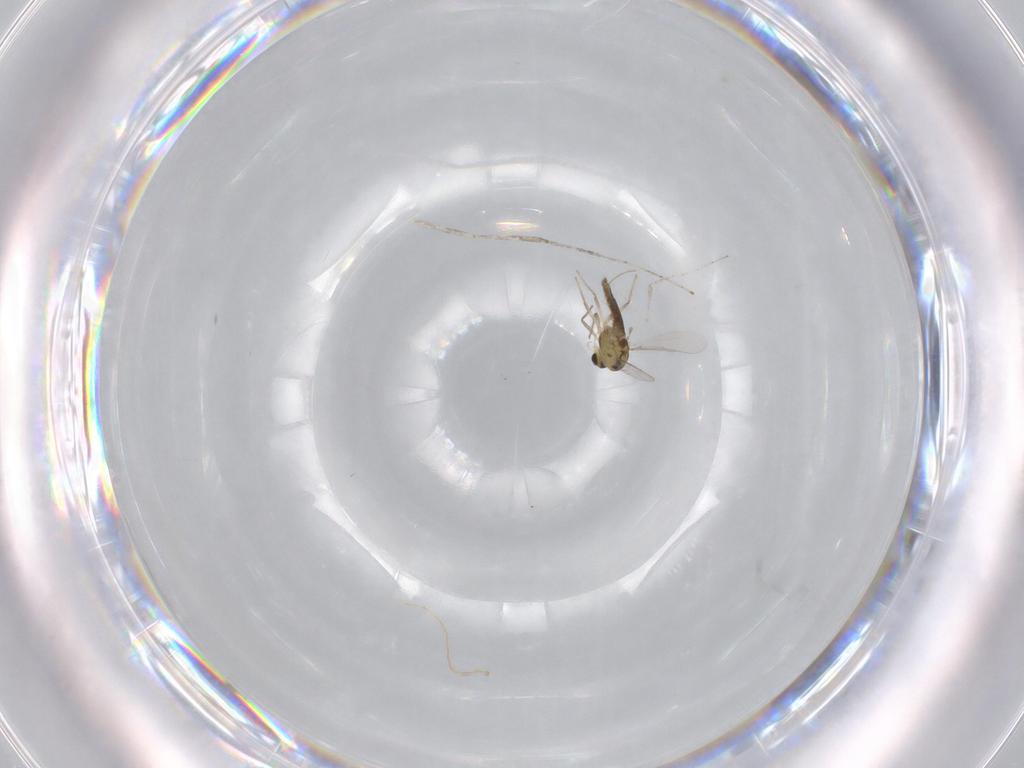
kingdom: Animalia
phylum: Arthropoda
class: Insecta
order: Diptera
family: Chironomidae
